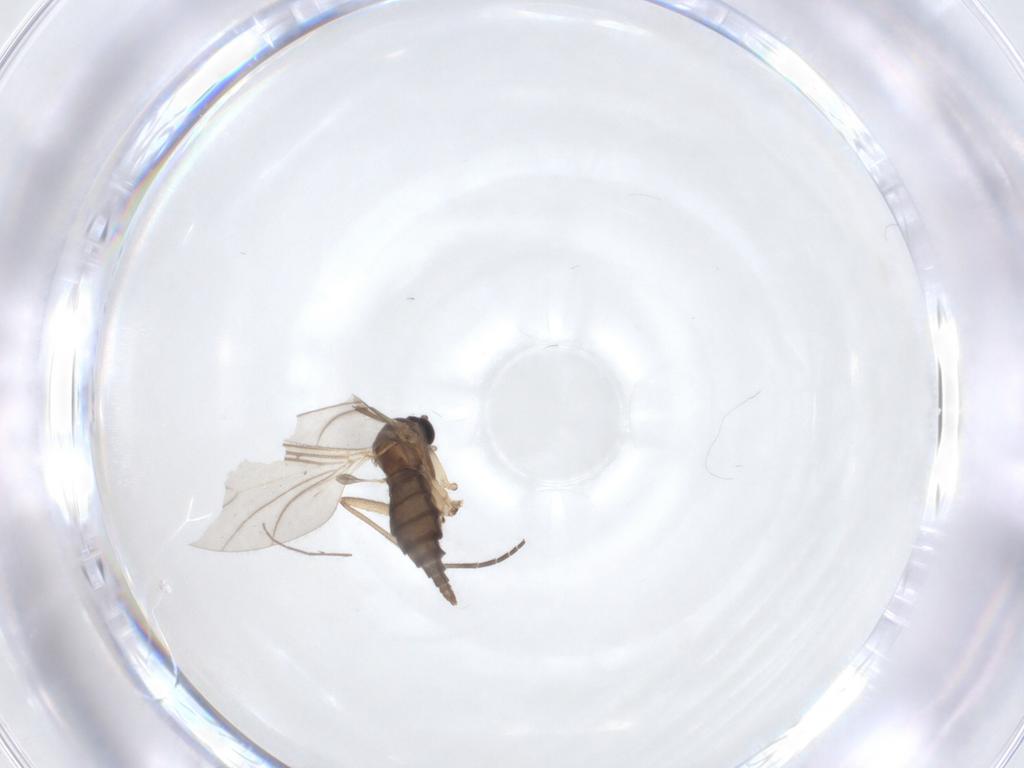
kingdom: Animalia
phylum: Arthropoda
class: Insecta
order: Diptera
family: Sciaridae
